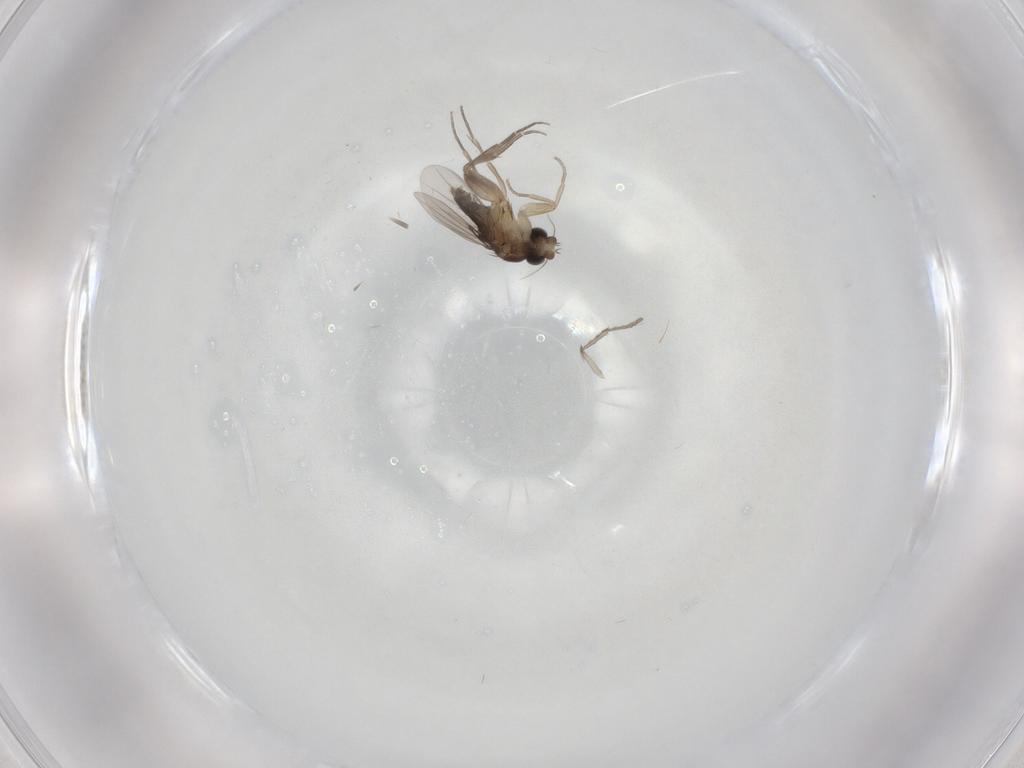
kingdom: Animalia
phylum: Arthropoda
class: Insecta
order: Diptera
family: Phoridae
